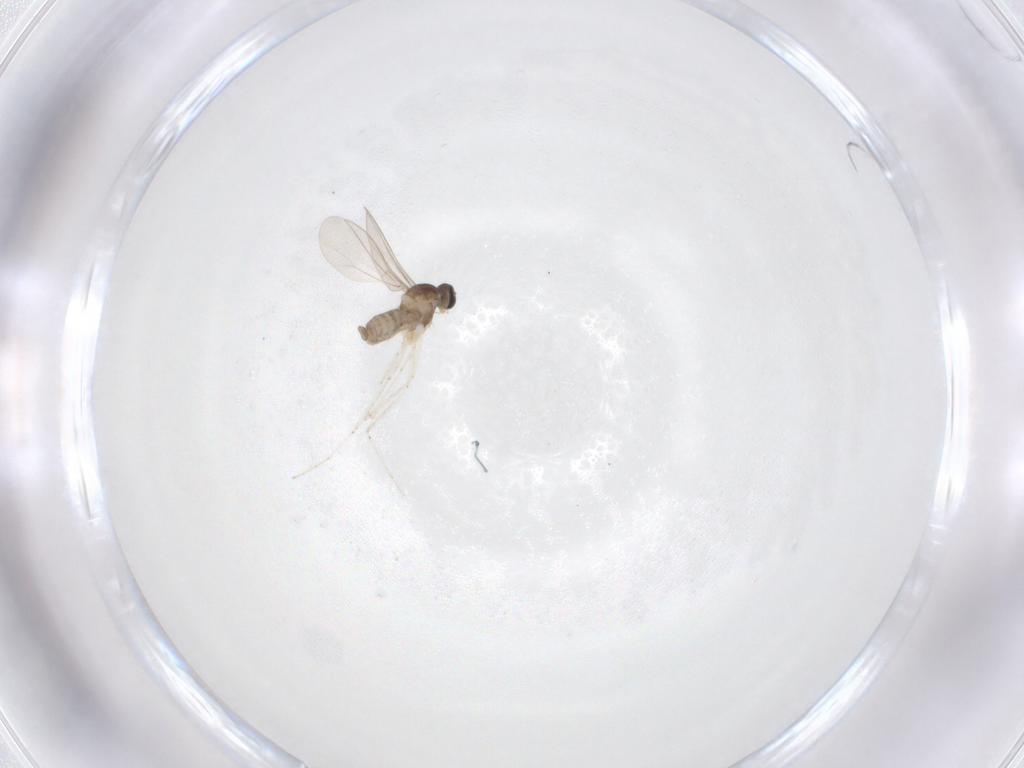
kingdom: Animalia
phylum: Arthropoda
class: Insecta
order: Diptera
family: Cecidomyiidae
